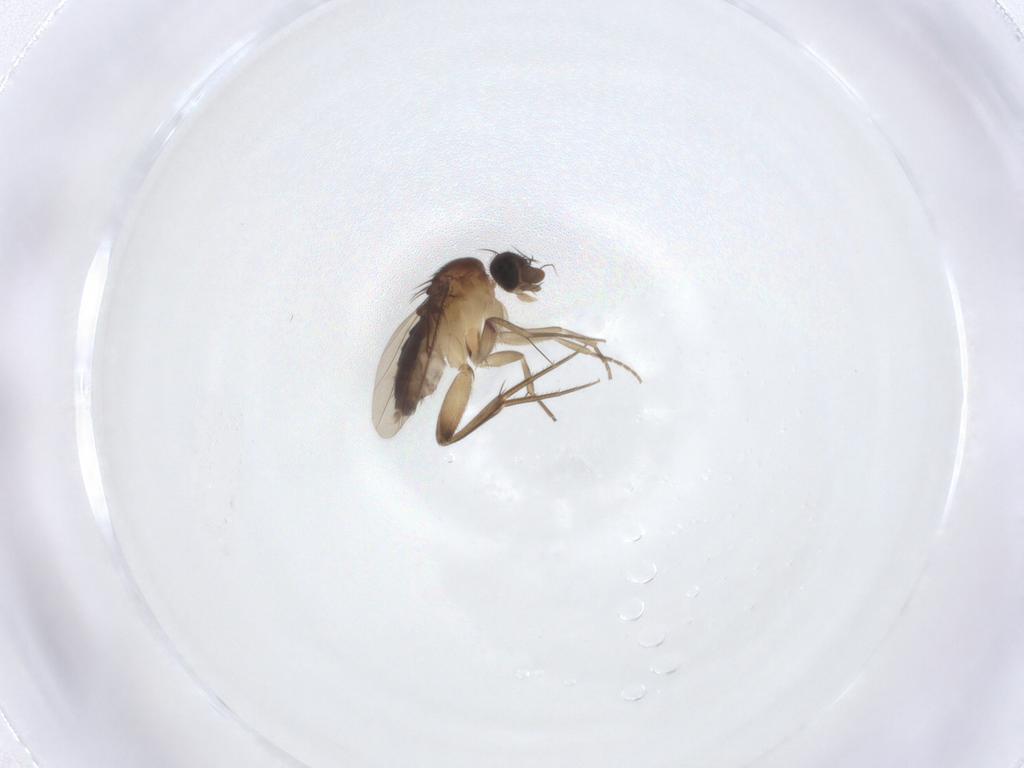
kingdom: Animalia
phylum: Arthropoda
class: Insecta
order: Diptera
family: Phoridae
